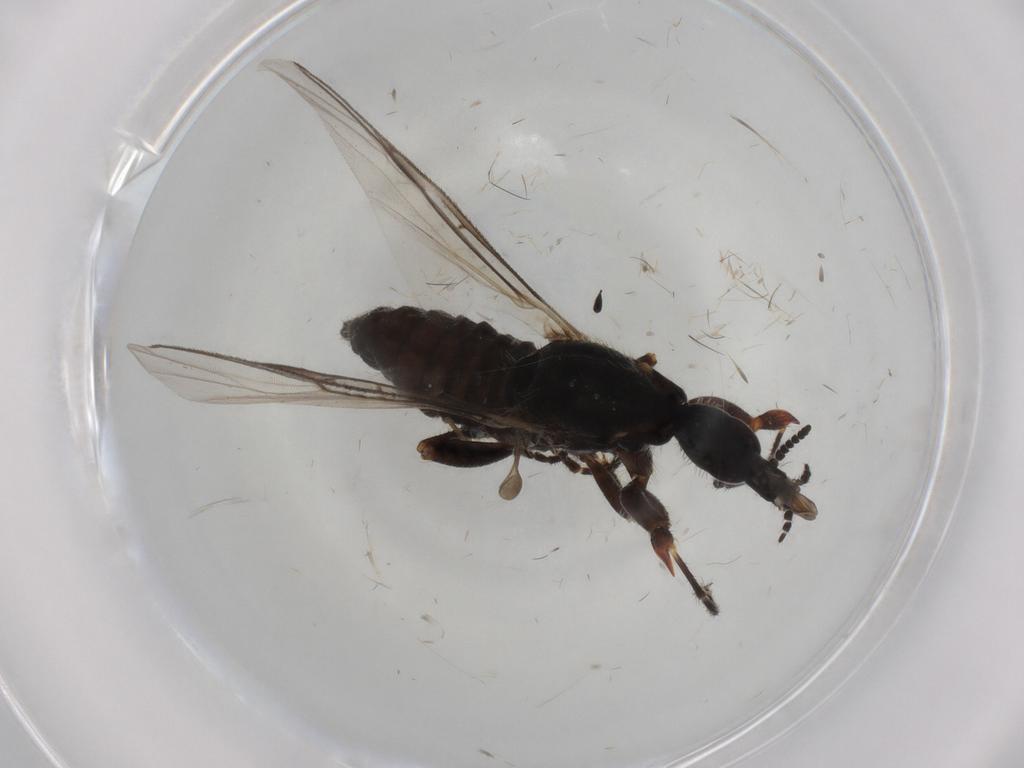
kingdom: Animalia
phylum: Arthropoda
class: Insecta
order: Diptera
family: Bibionidae
